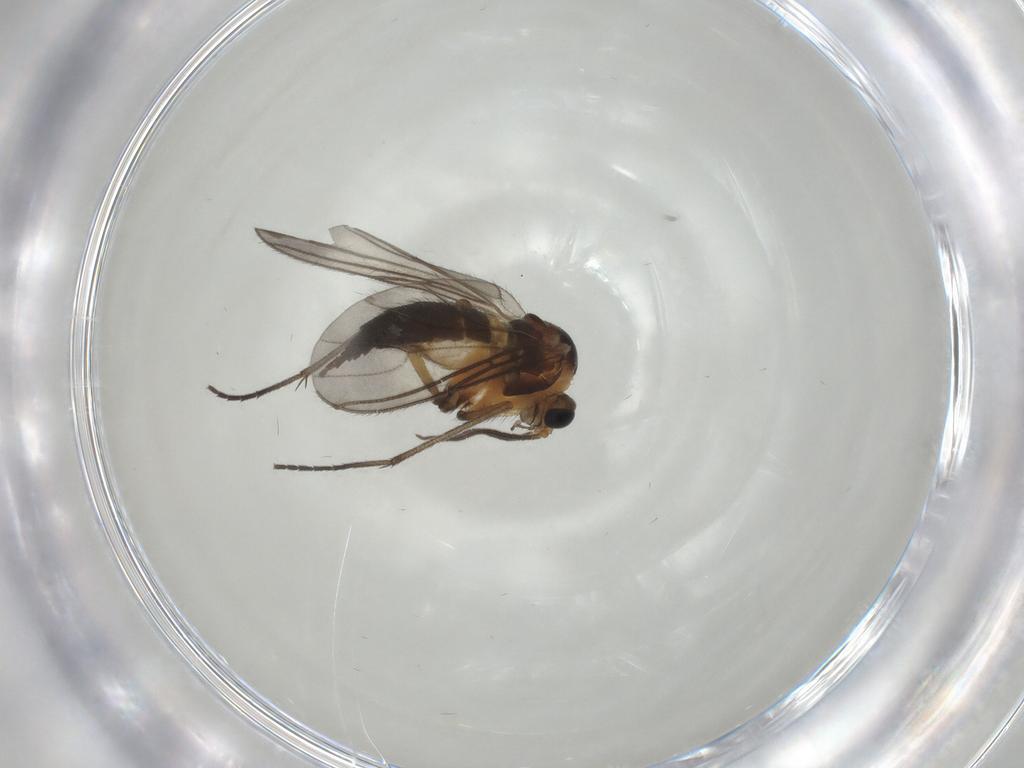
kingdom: Animalia
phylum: Arthropoda
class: Insecta
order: Diptera
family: Sciaridae
